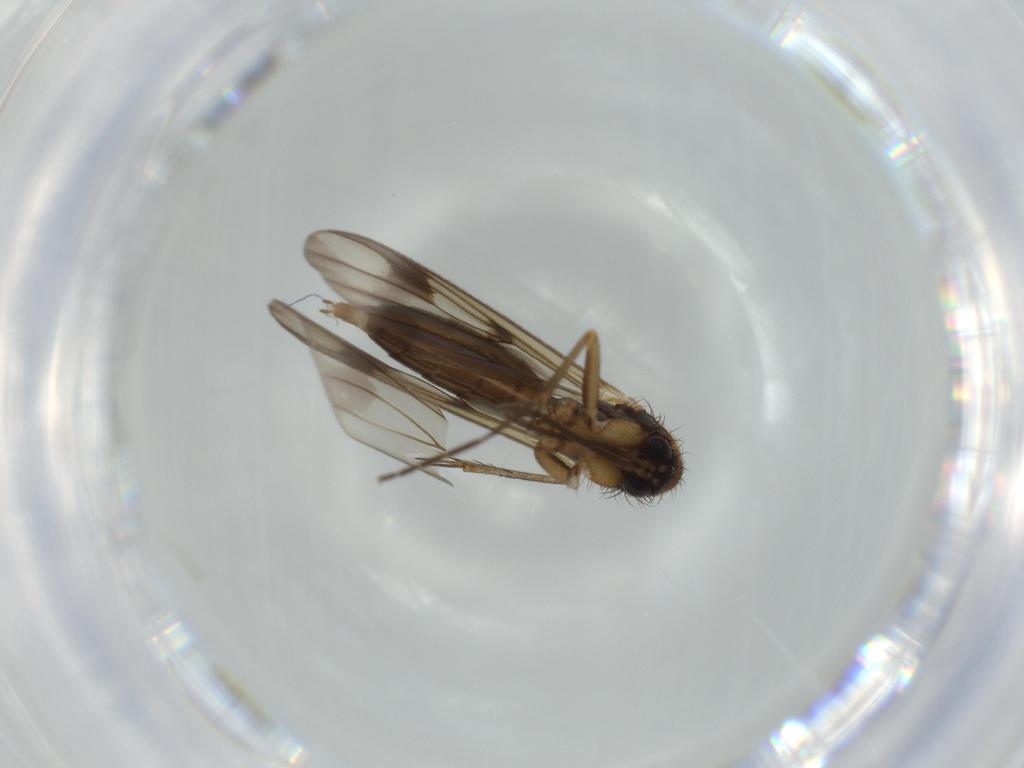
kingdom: Animalia
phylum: Arthropoda
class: Insecta
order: Diptera
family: Mycetophilidae
